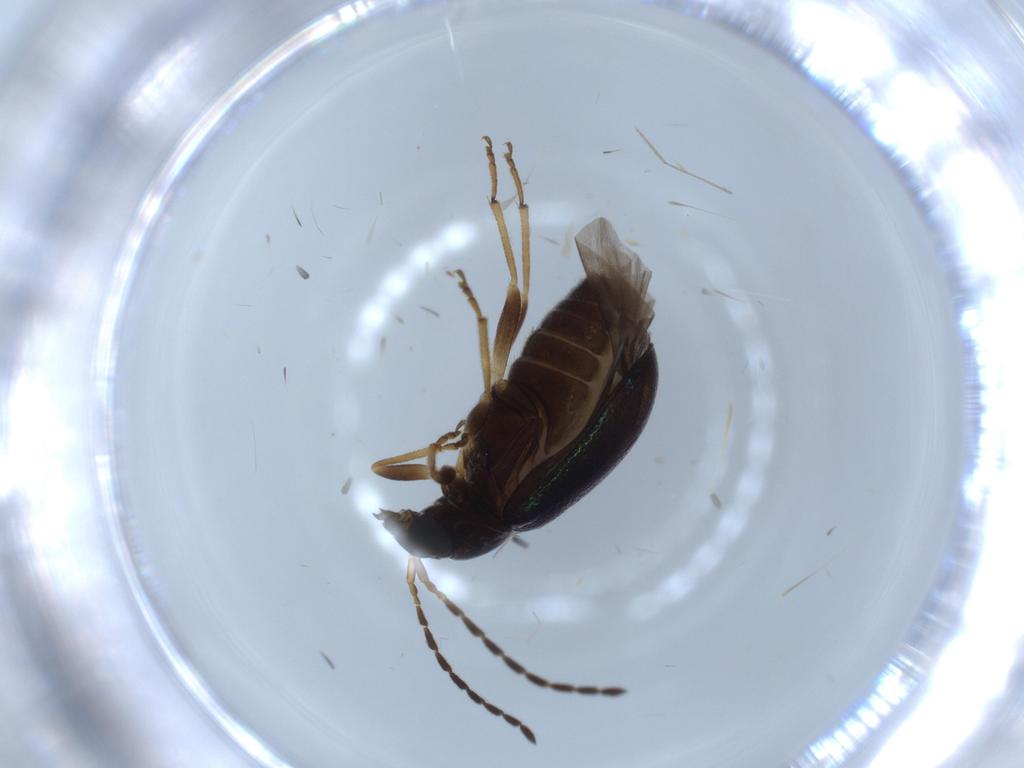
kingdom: Animalia
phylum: Arthropoda
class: Insecta
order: Coleoptera
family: Chrysomelidae
